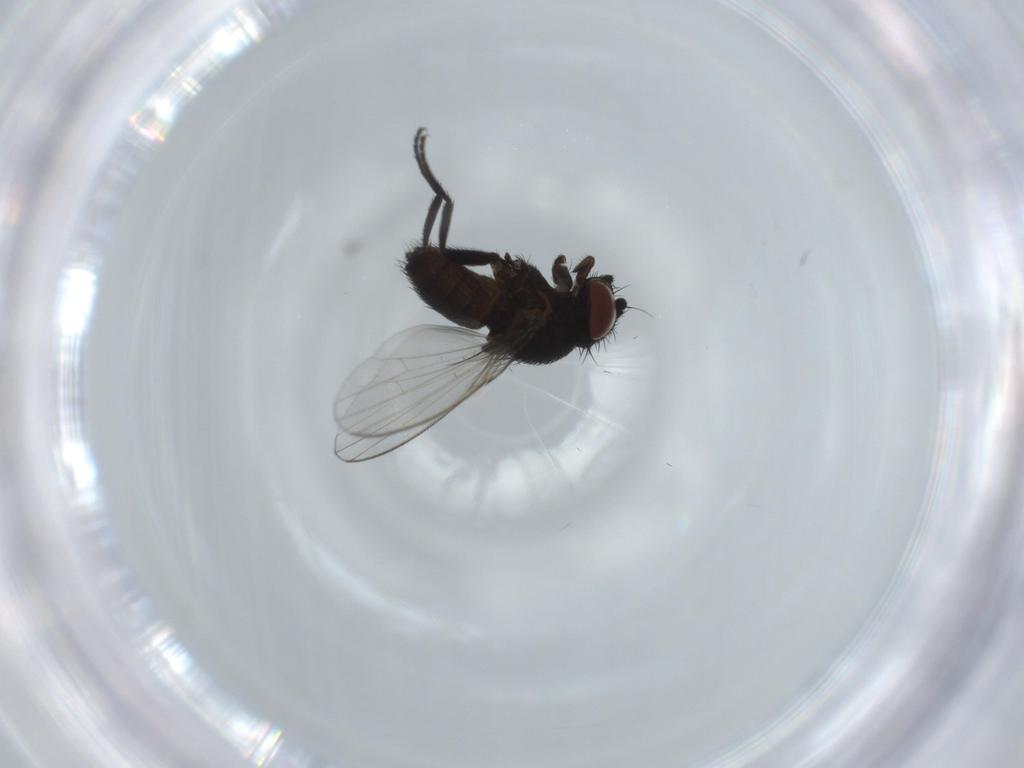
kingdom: Animalia
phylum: Arthropoda
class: Insecta
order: Diptera
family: Milichiidae
